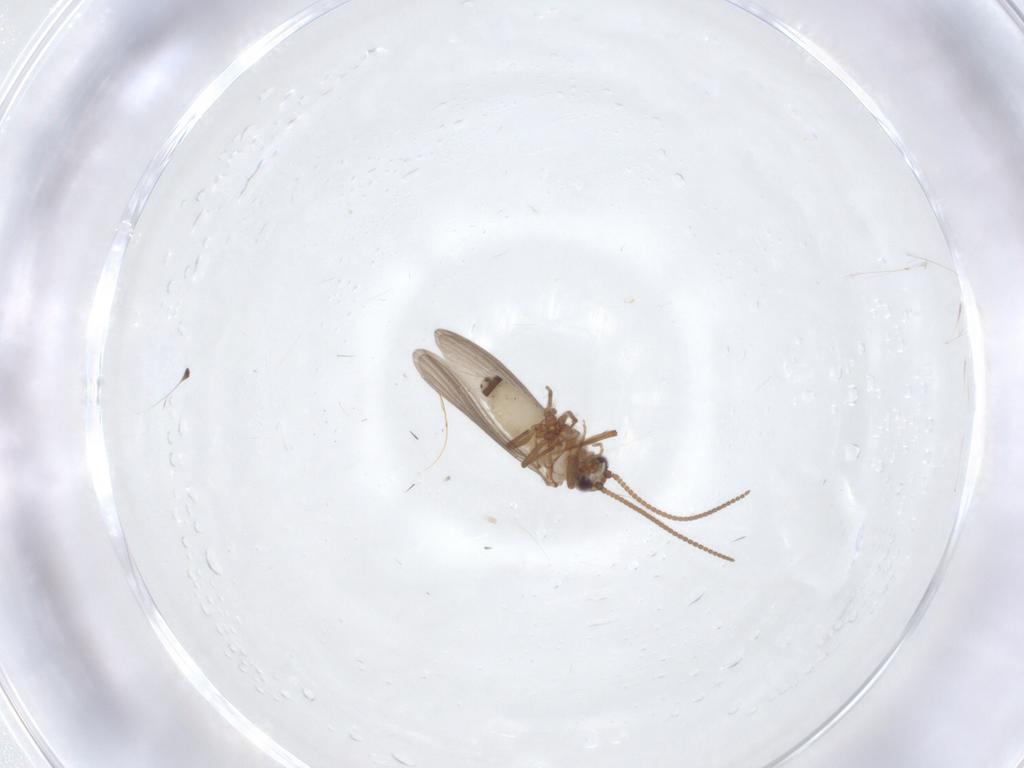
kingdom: Animalia
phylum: Arthropoda
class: Insecta
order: Neuroptera
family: Coniopterygidae
